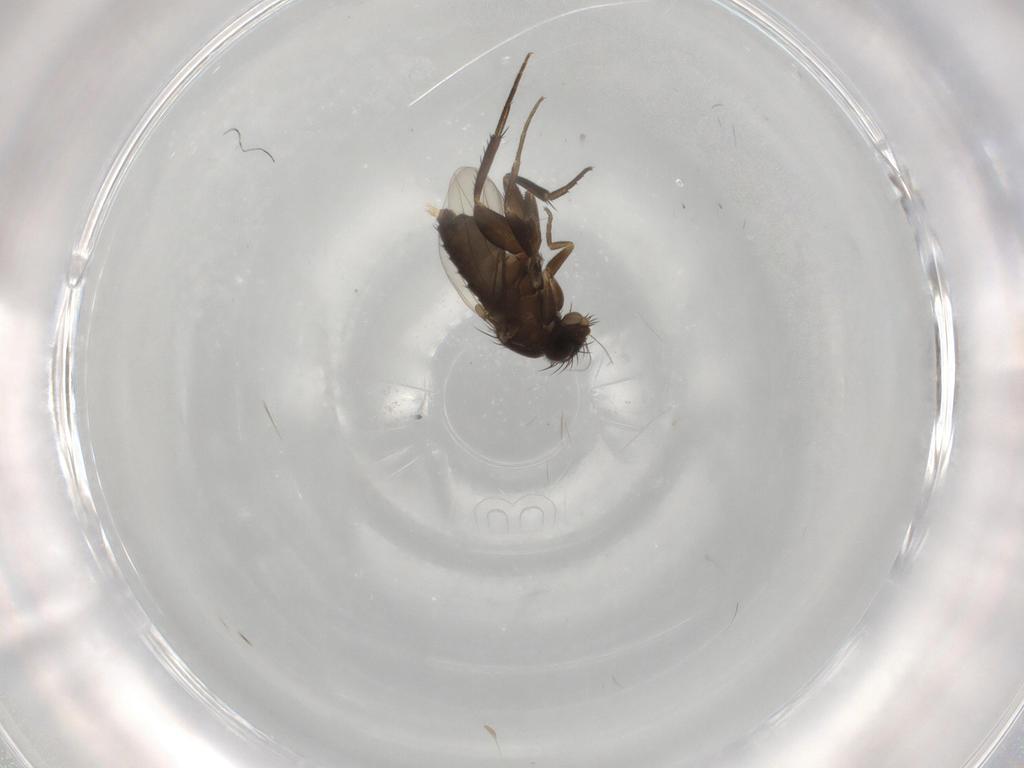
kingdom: Animalia
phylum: Arthropoda
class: Insecta
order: Diptera
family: Phoridae
